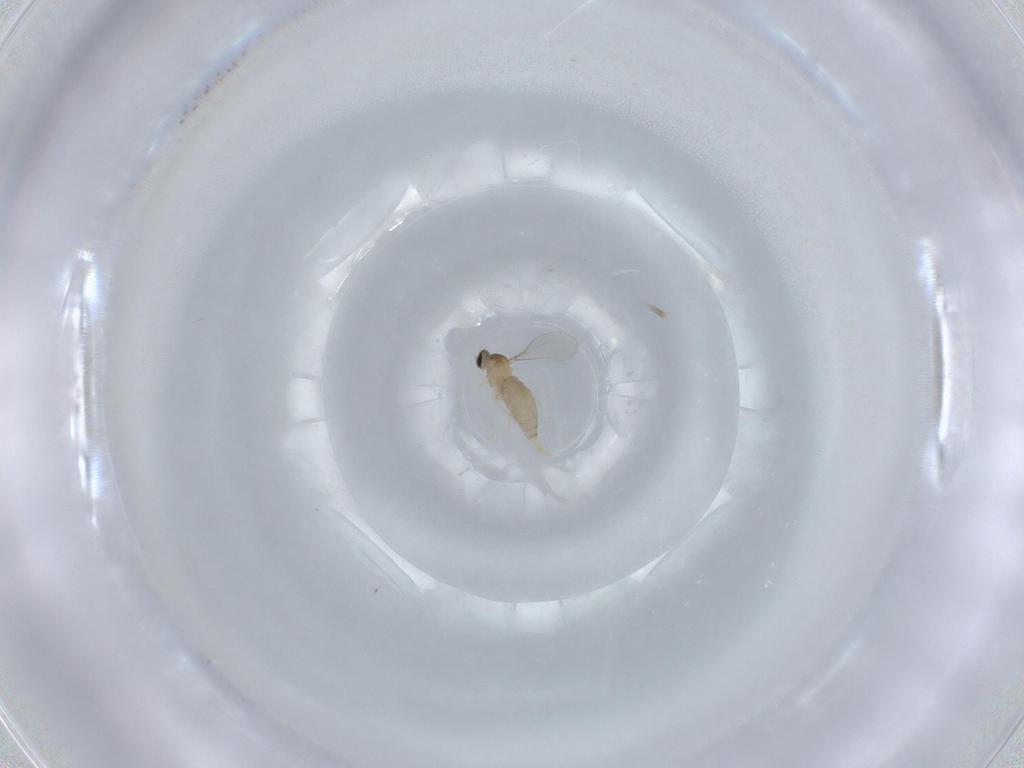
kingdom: Animalia
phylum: Arthropoda
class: Insecta
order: Diptera
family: Cecidomyiidae
